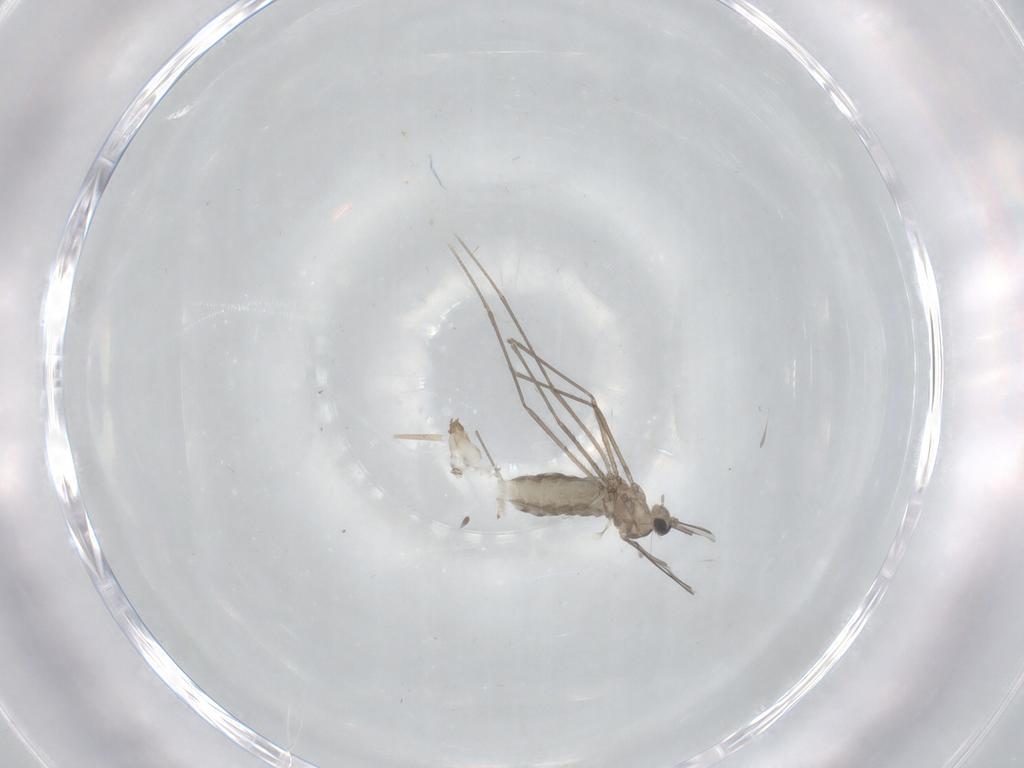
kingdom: Animalia
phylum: Arthropoda
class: Insecta
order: Diptera
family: Cecidomyiidae
